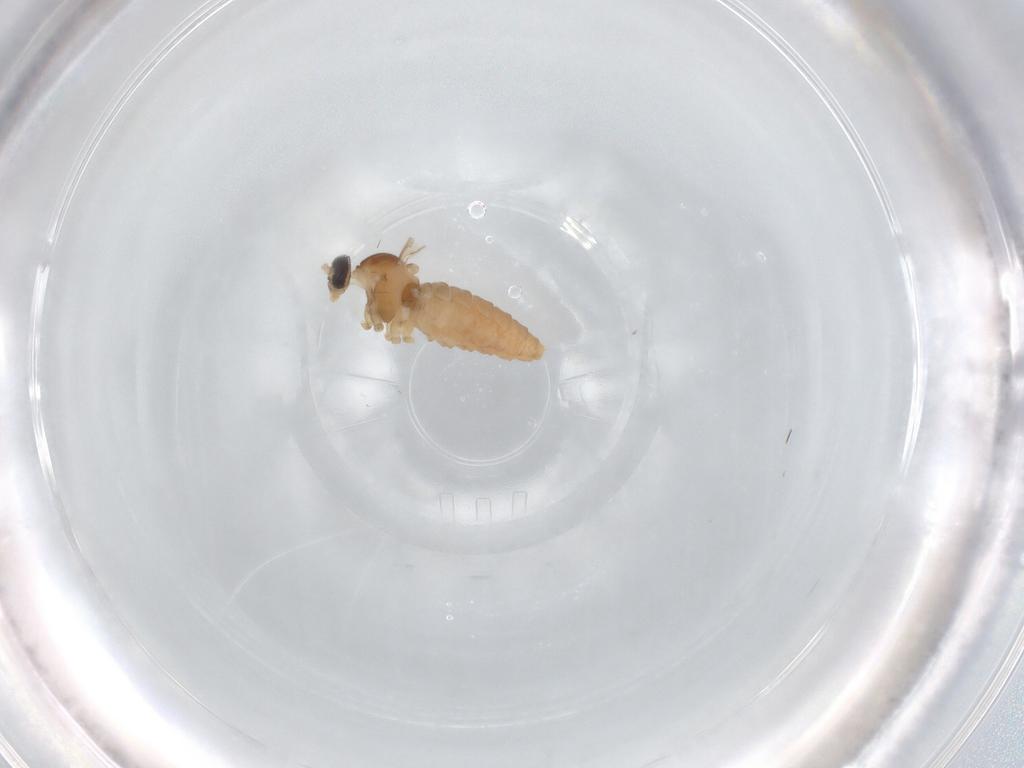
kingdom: Animalia
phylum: Arthropoda
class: Insecta
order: Diptera
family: Cecidomyiidae
